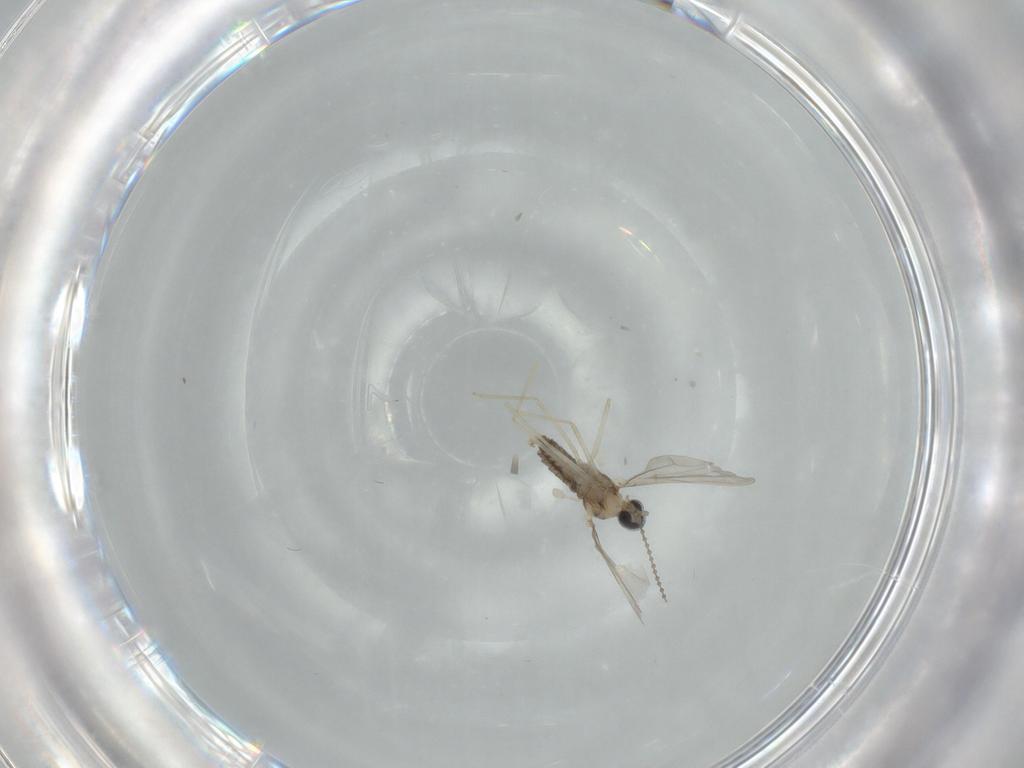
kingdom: Animalia
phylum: Arthropoda
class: Insecta
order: Diptera
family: Cecidomyiidae
